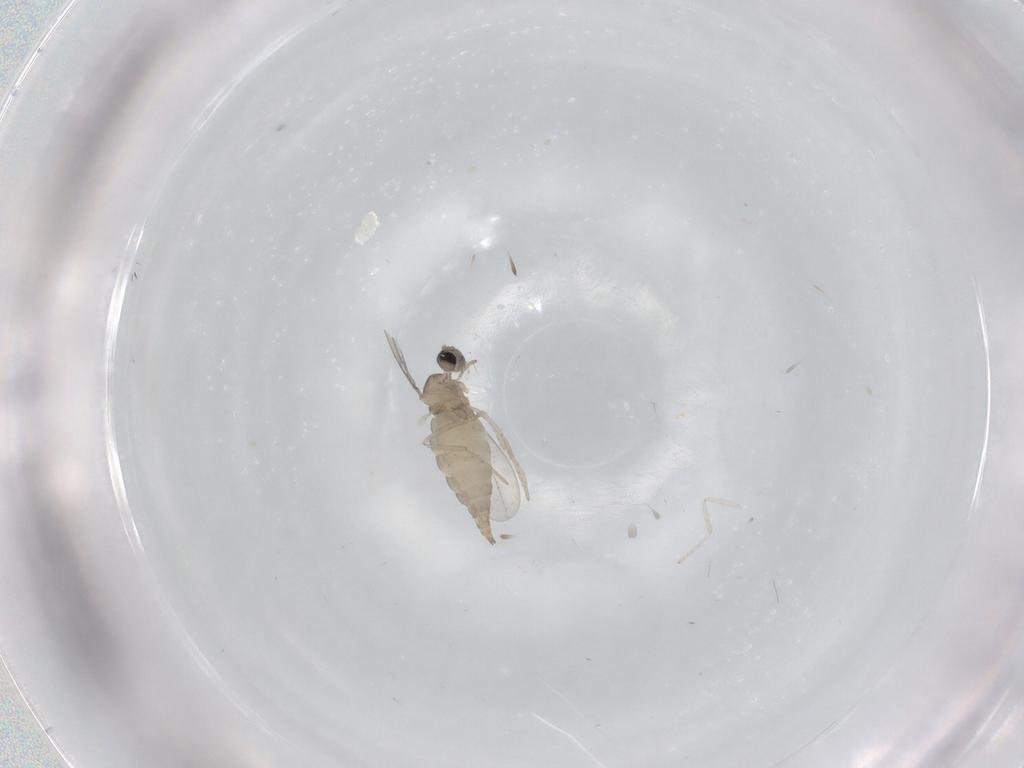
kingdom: Animalia
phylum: Arthropoda
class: Insecta
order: Diptera
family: Cecidomyiidae
